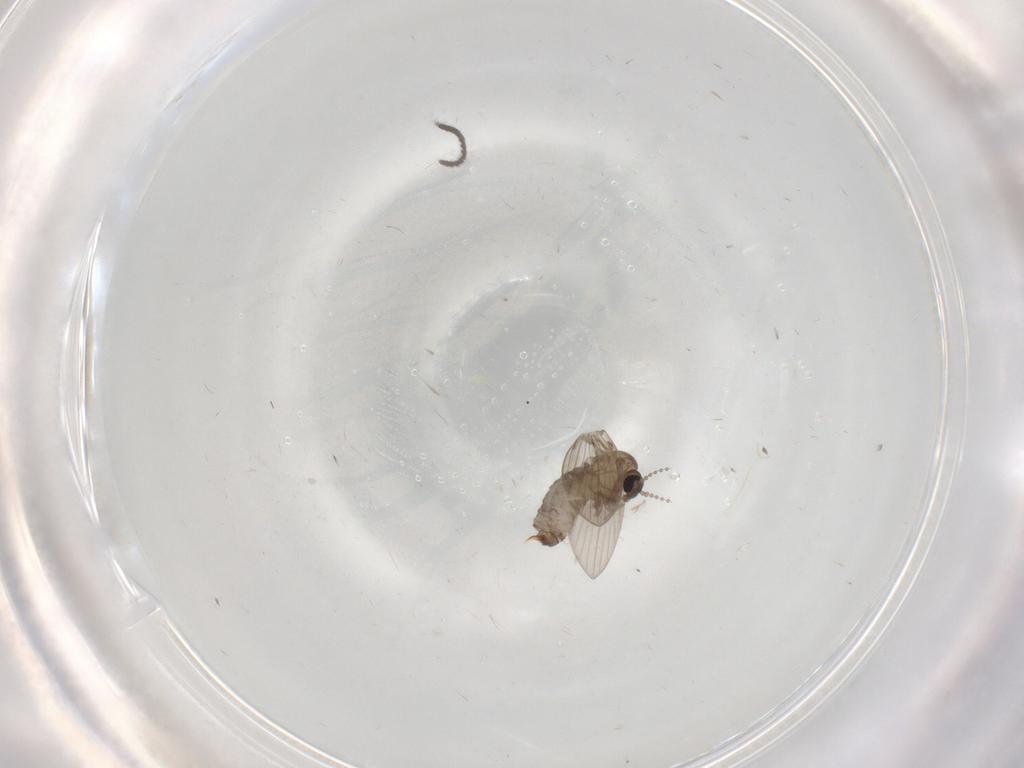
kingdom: Animalia
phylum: Arthropoda
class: Insecta
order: Diptera
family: Psychodidae
